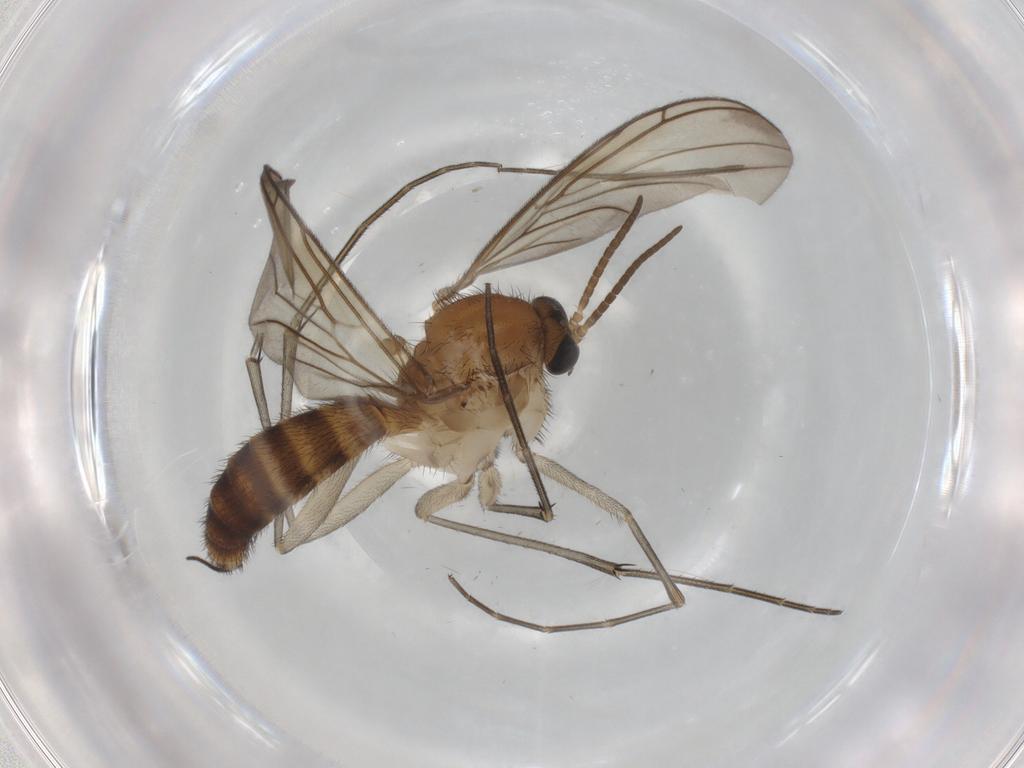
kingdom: Animalia
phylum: Arthropoda
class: Insecta
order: Diptera
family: Keroplatidae
